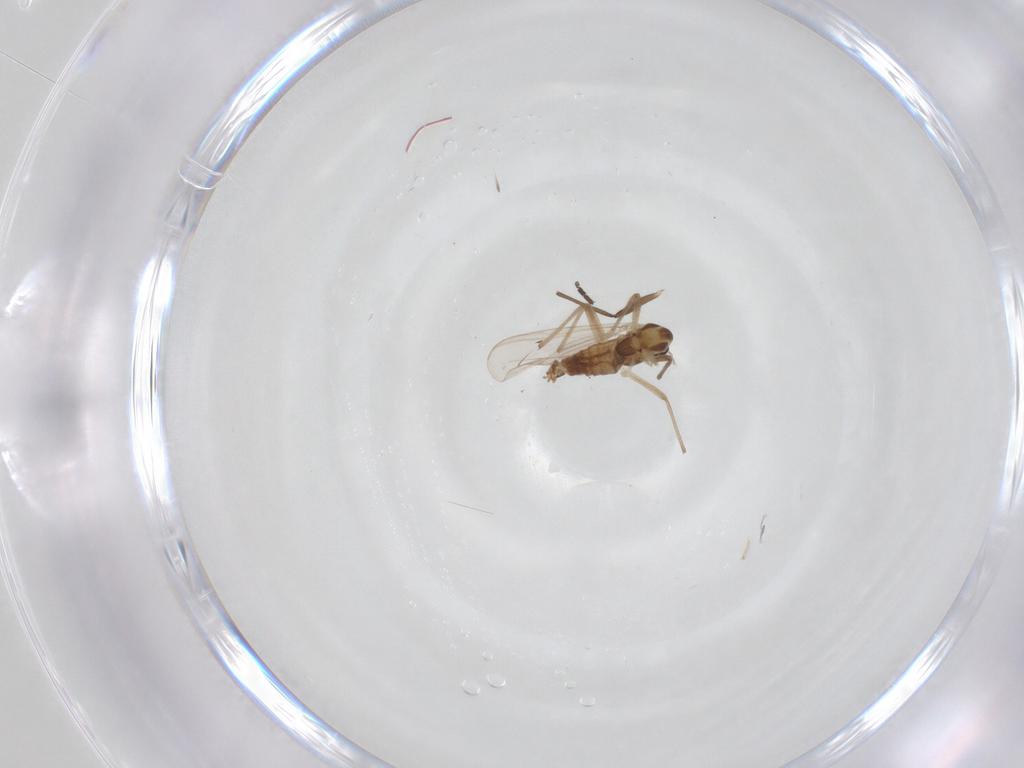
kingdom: Animalia
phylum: Arthropoda
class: Insecta
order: Diptera
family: Chironomidae
